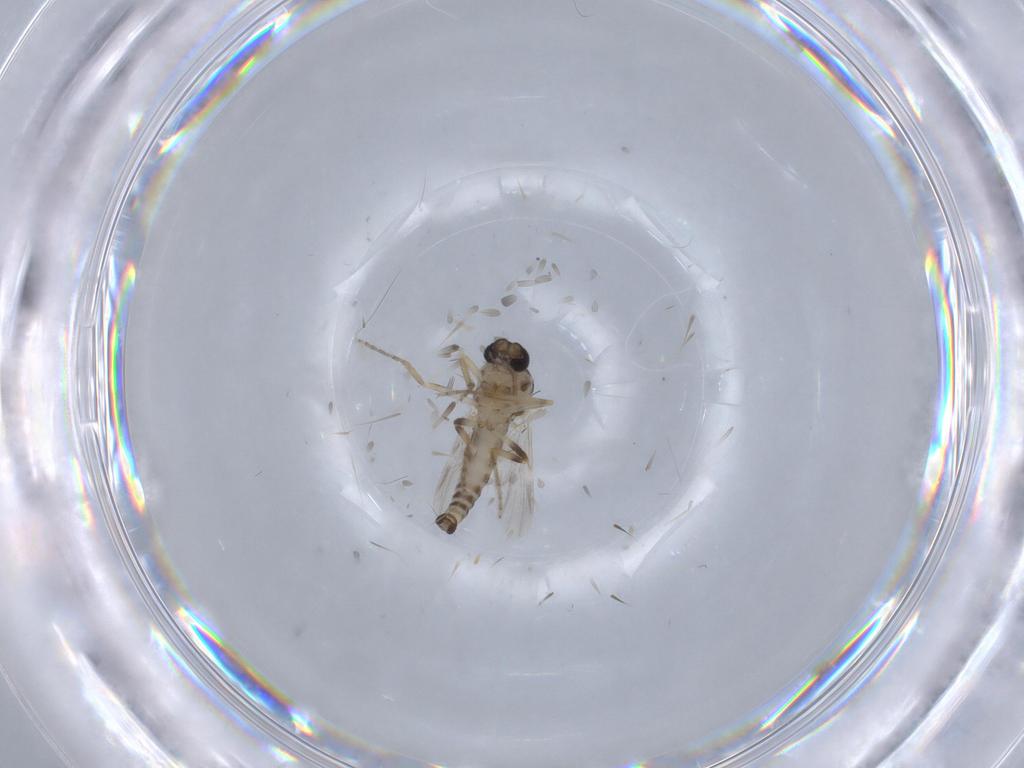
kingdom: Animalia
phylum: Arthropoda
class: Insecta
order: Diptera
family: Ceratopogonidae
